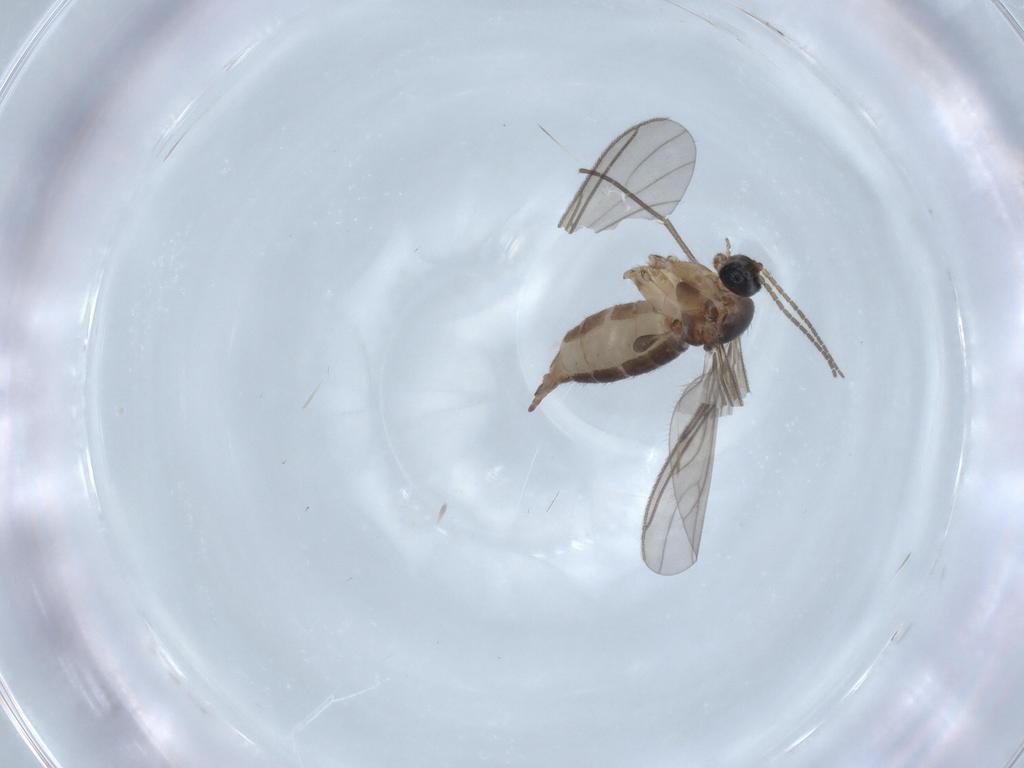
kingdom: Animalia
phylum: Arthropoda
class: Insecta
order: Diptera
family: Sciaridae
